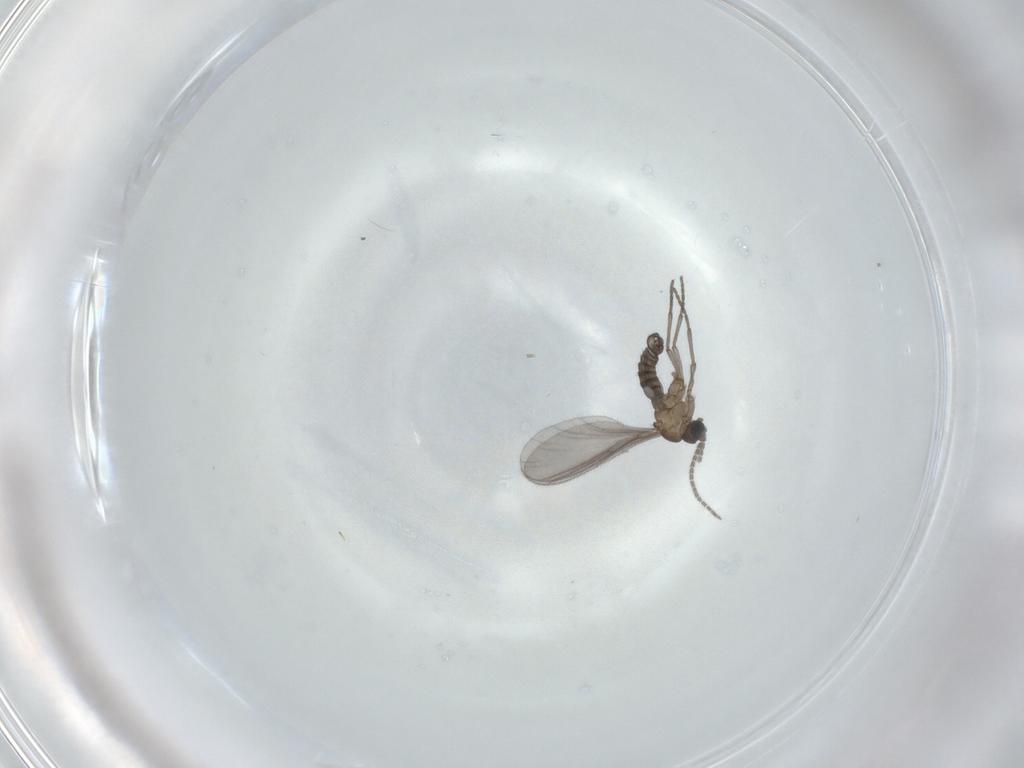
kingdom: Animalia
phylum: Arthropoda
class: Insecta
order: Diptera
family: Sciaridae
